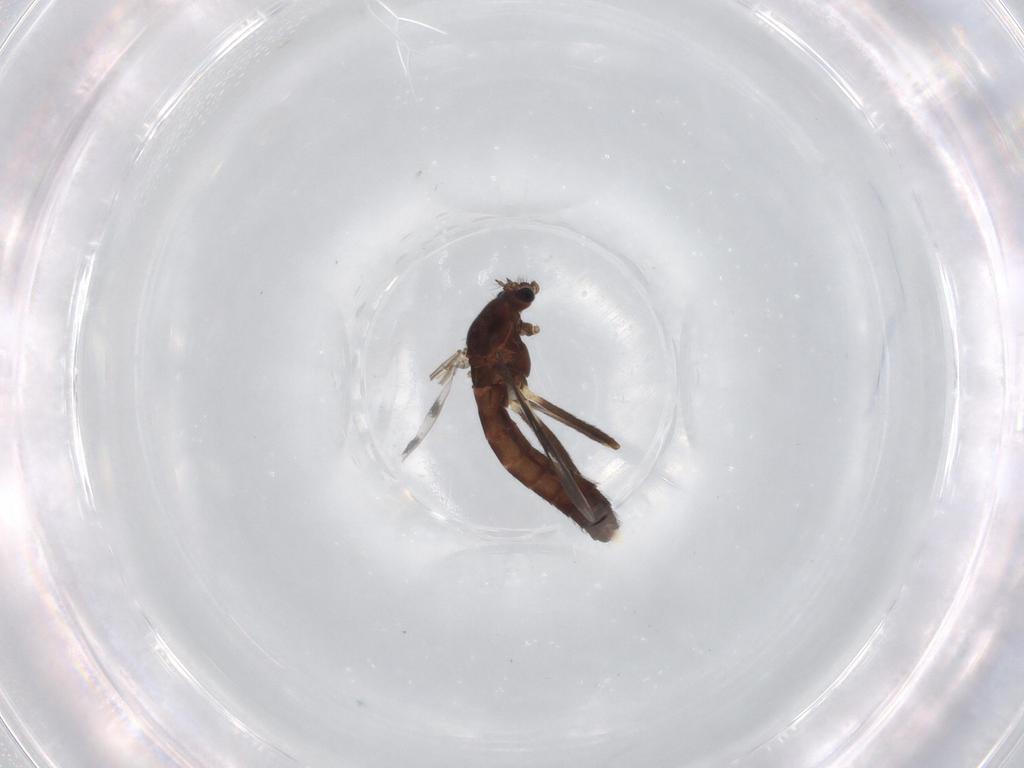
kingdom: Animalia
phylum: Arthropoda
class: Insecta
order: Diptera
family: Chironomidae
